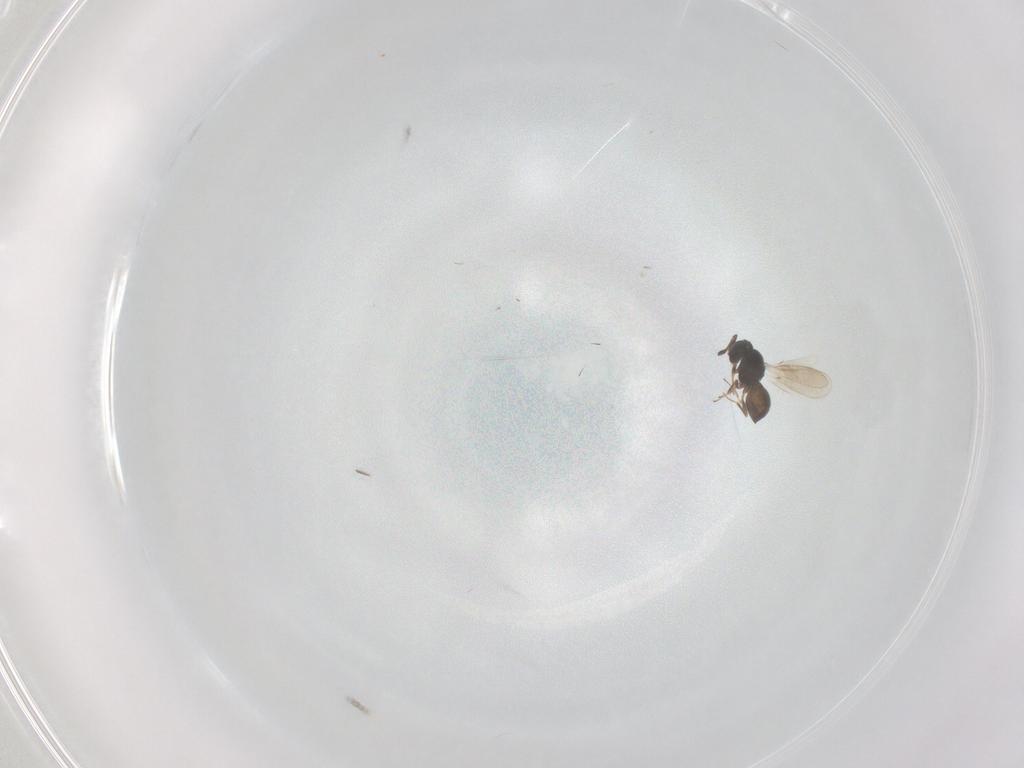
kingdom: Animalia
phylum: Arthropoda
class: Insecta
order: Hymenoptera
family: Scelionidae
